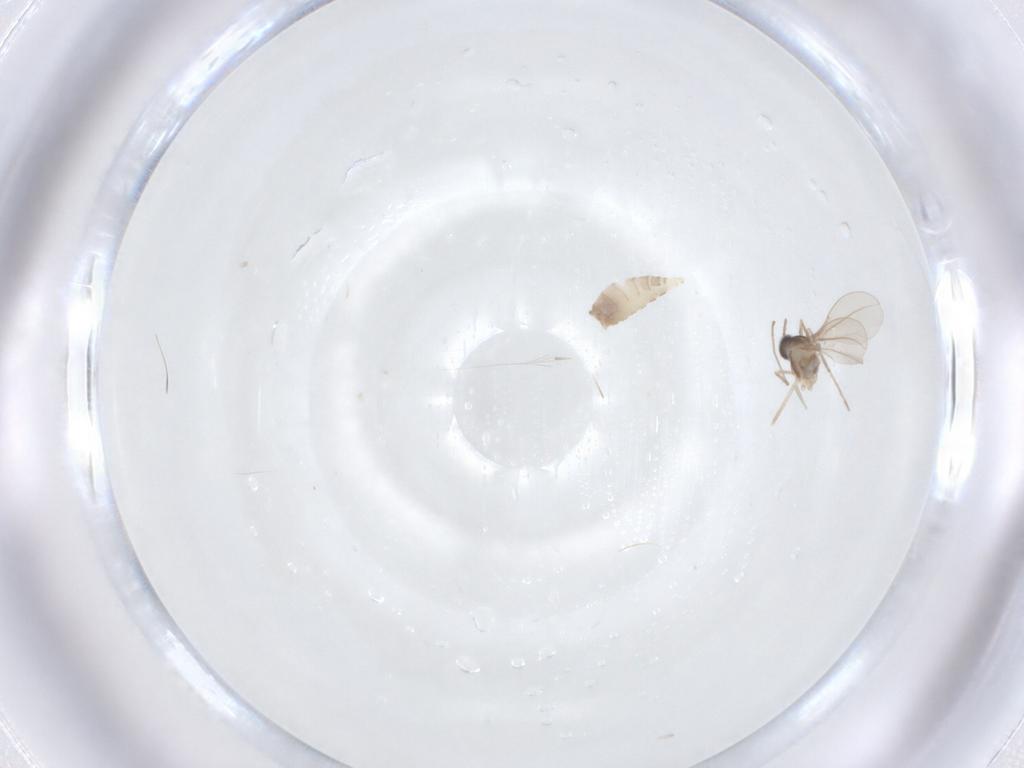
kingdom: Animalia
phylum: Arthropoda
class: Insecta
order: Diptera
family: Cecidomyiidae
